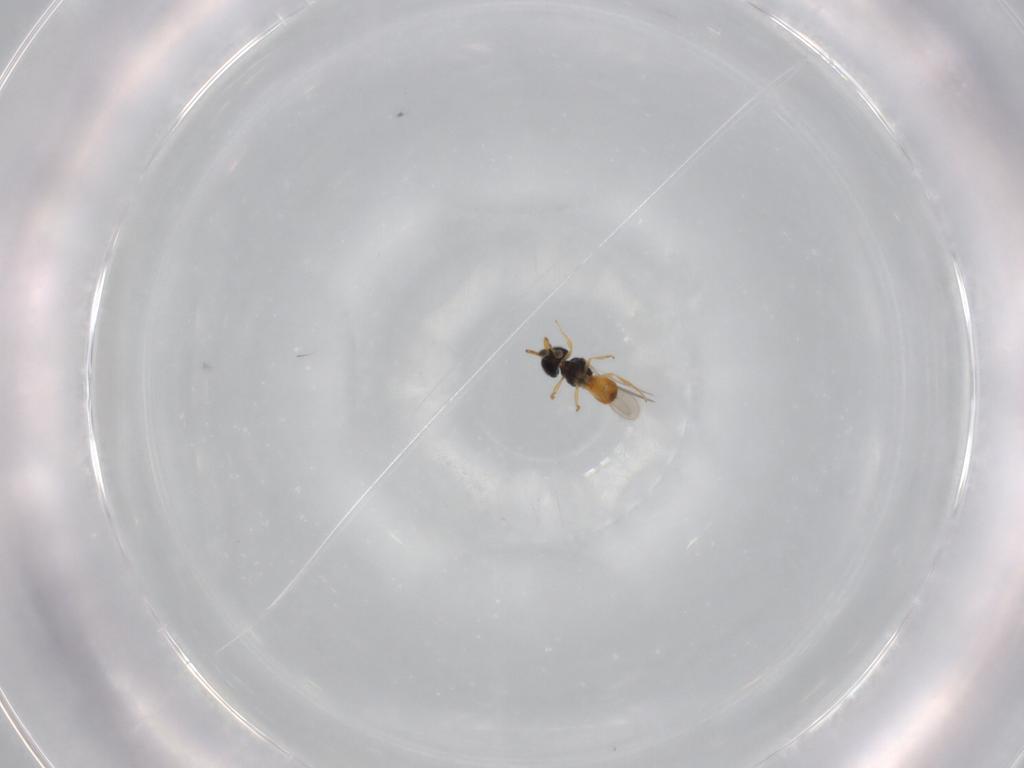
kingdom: Animalia
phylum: Arthropoda
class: Insecta
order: Hymenoptera
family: Scelionidae
